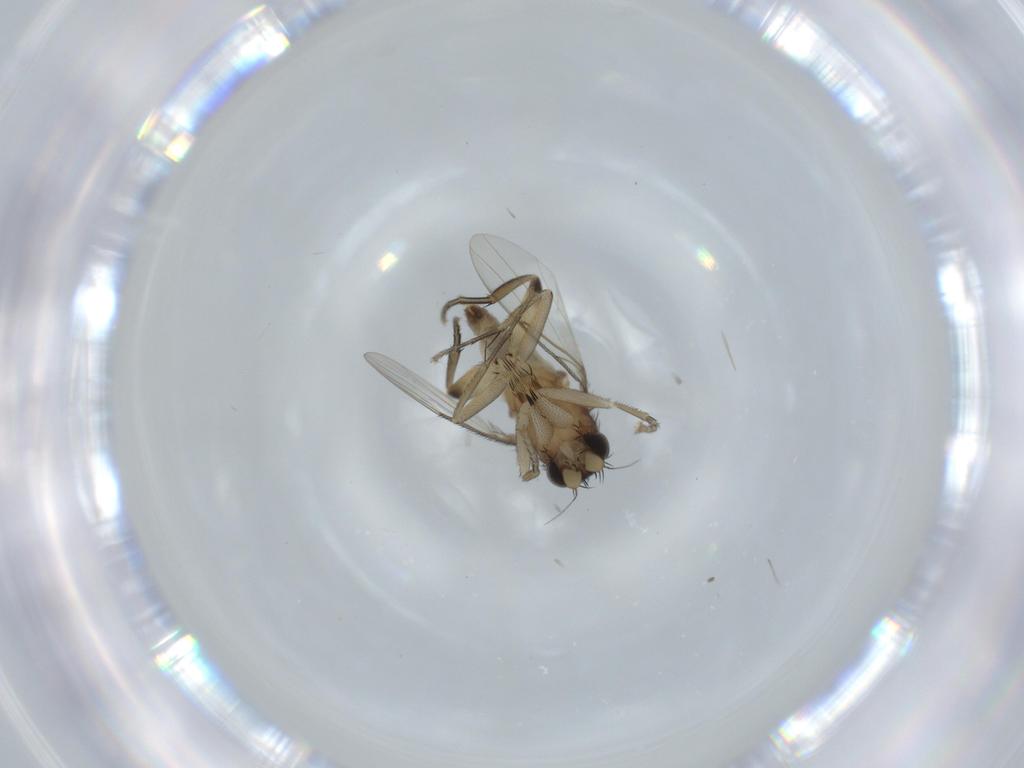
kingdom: Animalia
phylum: Arthropoda
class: Insecta
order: Diptera
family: Phoridae
